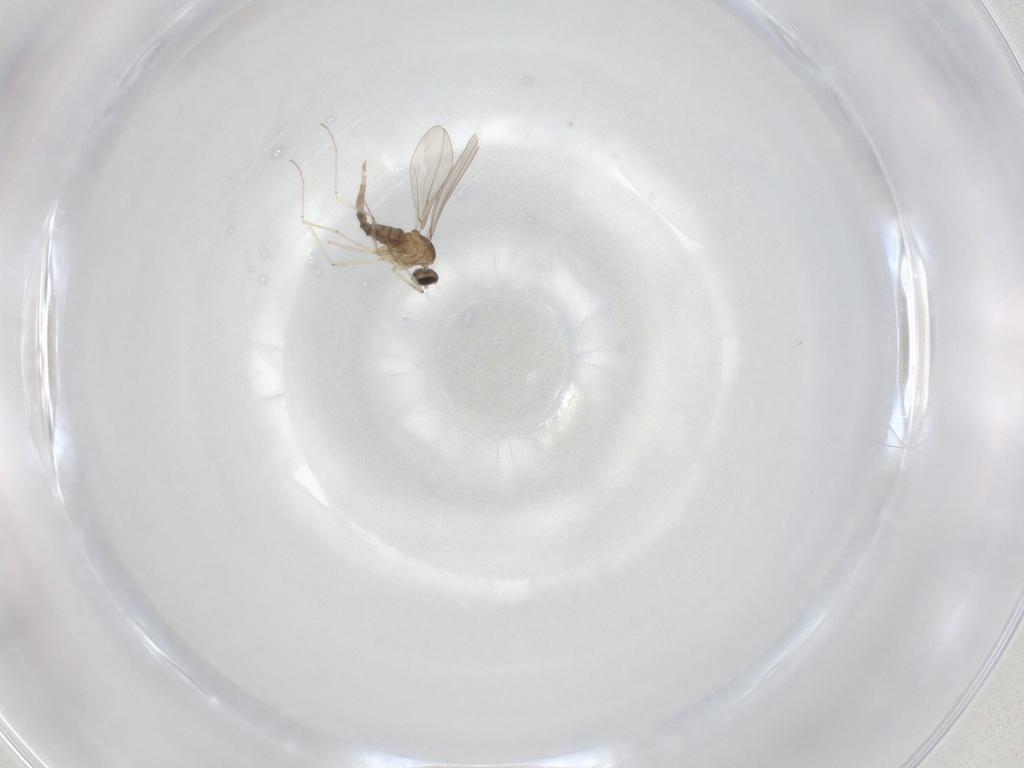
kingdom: Animalia
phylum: Arthropoda
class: Insecta
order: Diptera
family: Cecidomyiidae
